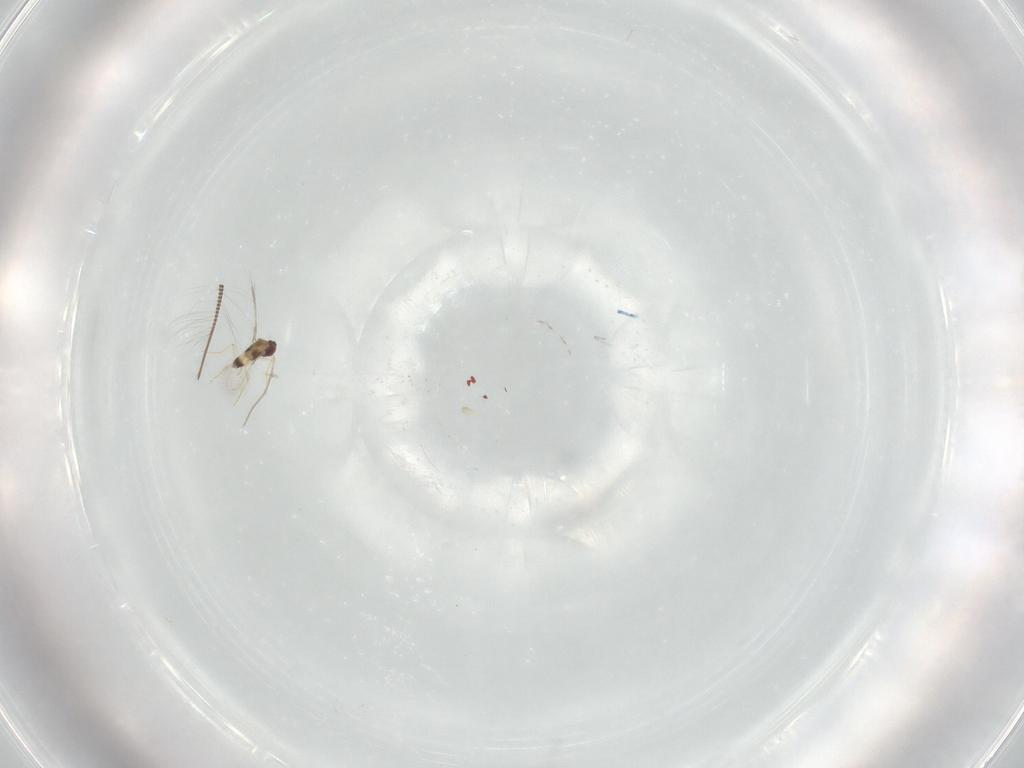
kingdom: Animalia
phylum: Arthropoda
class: Insecta
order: Hymenoptera
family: Mymaridae
